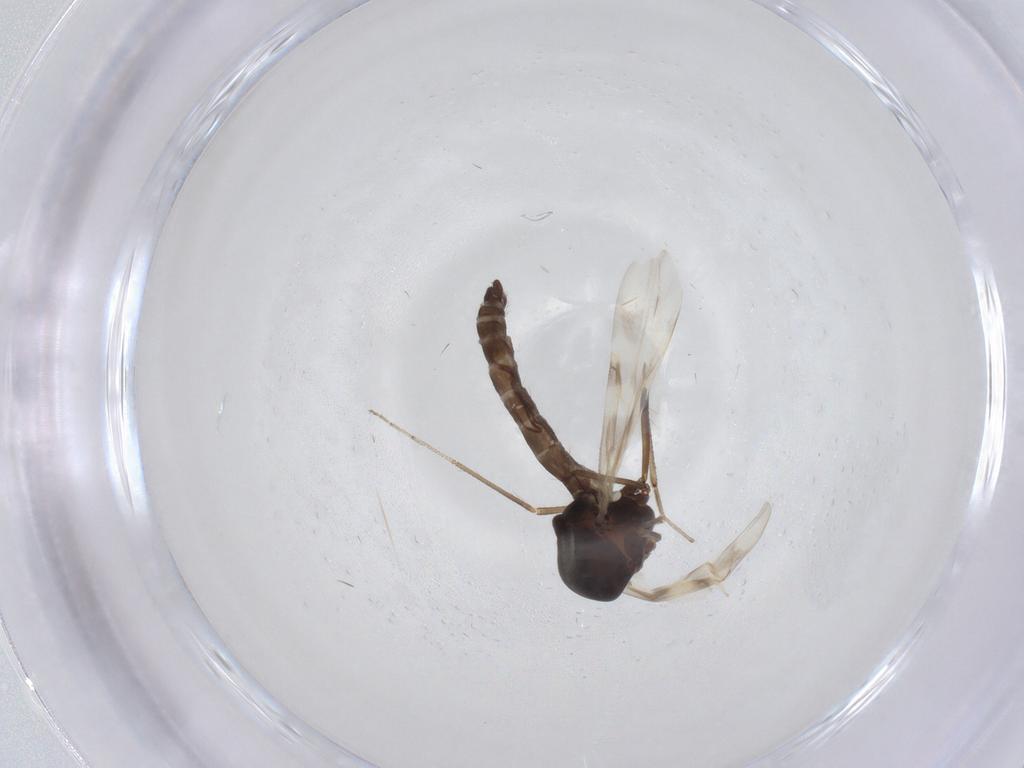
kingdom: Animalia
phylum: Arthropoda
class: Insecta
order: Diptera
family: Ceratopogonidae
